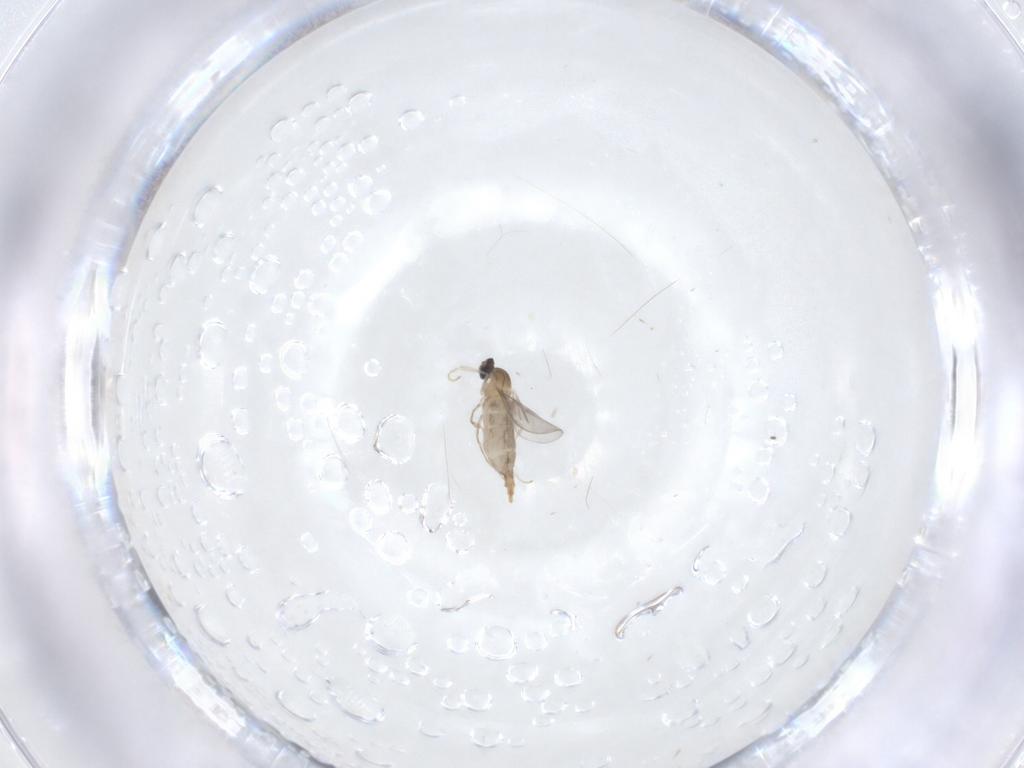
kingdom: Animalia
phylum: Arthropoda
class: Insecta
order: Diptera
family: Cecidomyiidae
